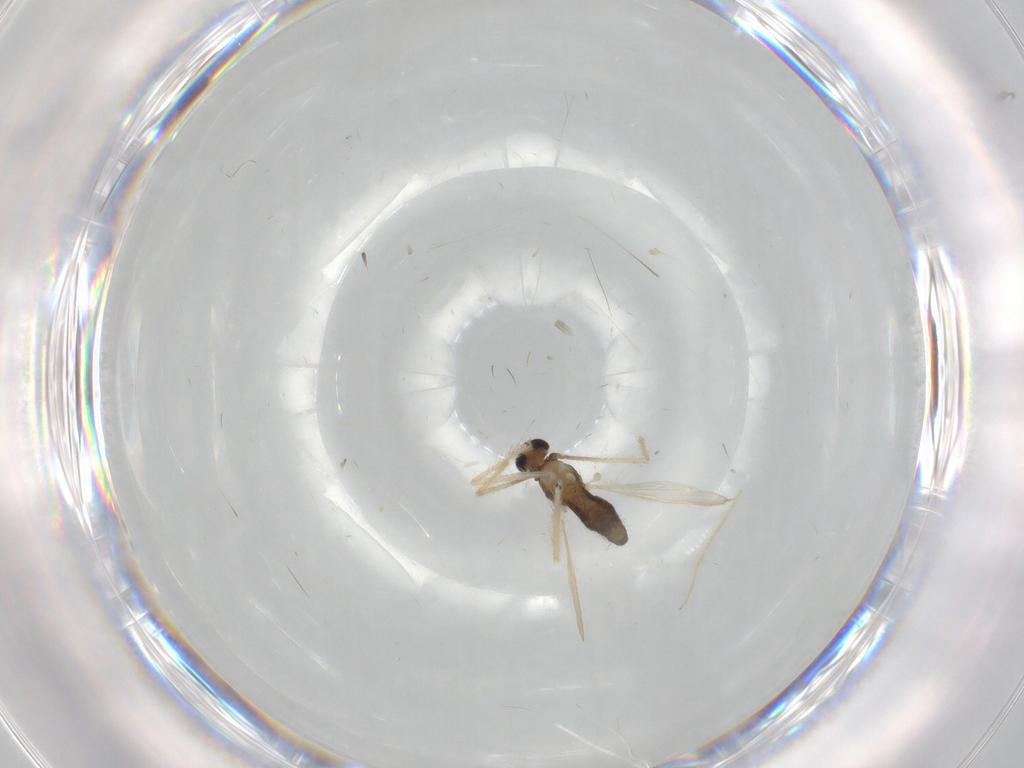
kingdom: Animalia
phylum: Arthropoda
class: Insecta
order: Diptera
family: Chironomidae
